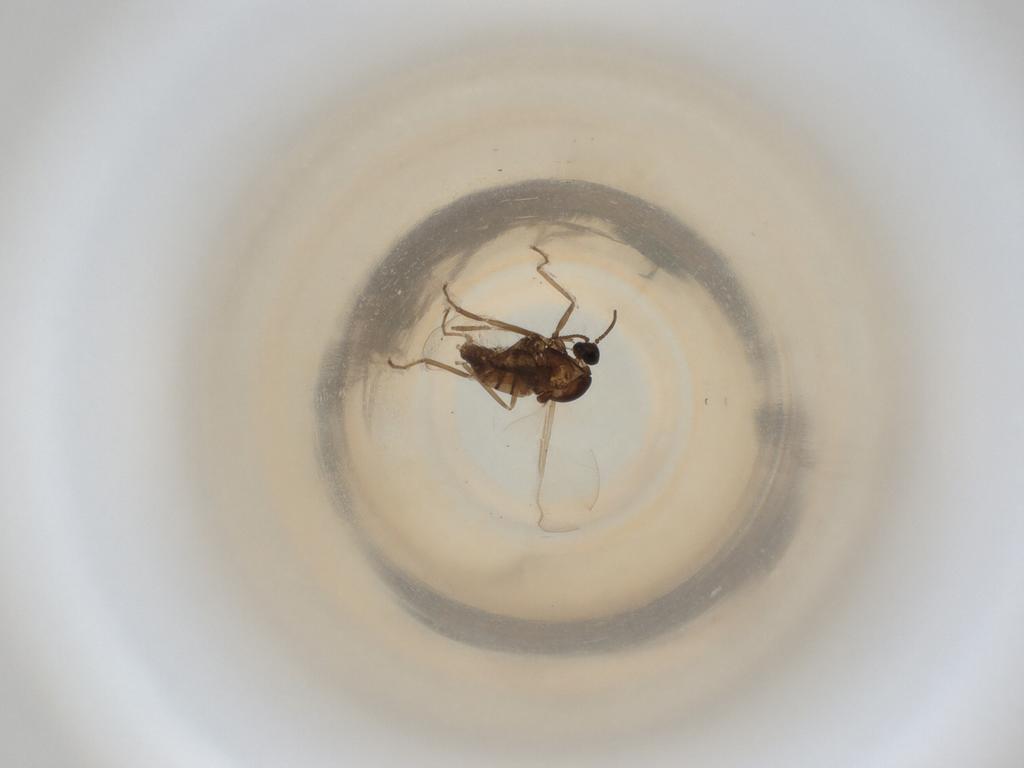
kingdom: Animalia
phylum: Arthropoda
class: Insecta
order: Diptera
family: Cecidomyiidae
